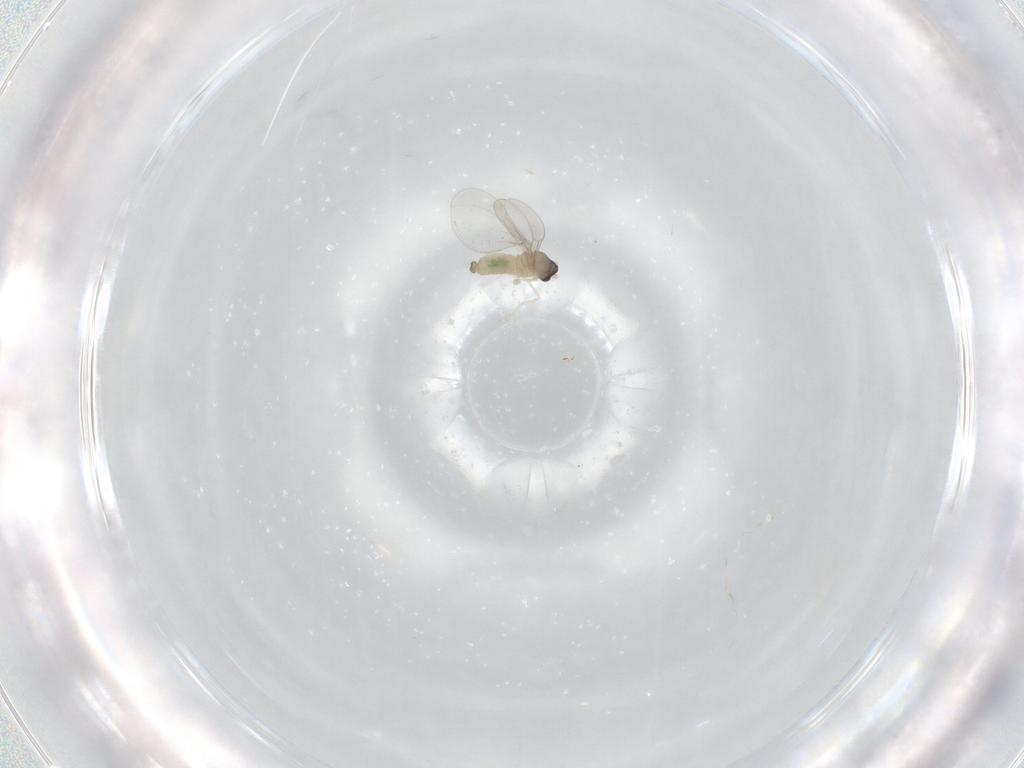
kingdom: Animalia
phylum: Arthropoda
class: Insecta
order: Diptera
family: Cecidomyiidae
